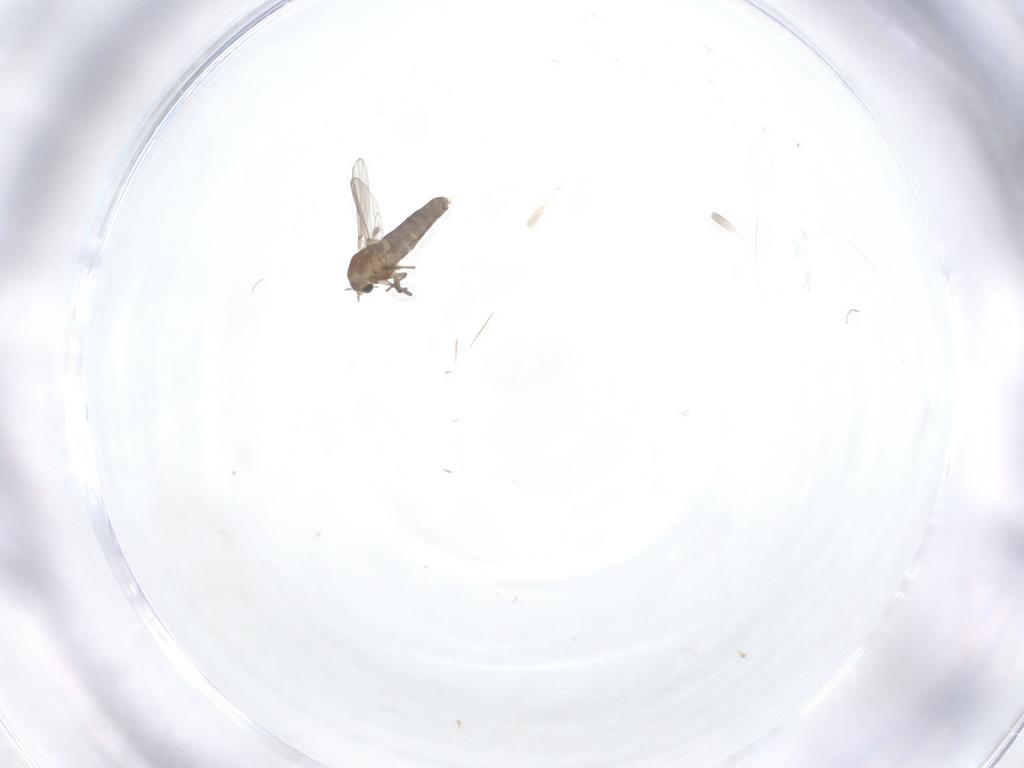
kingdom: Animalia
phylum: Arthropoda
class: Insecta
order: Diptera
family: Chironomidae
